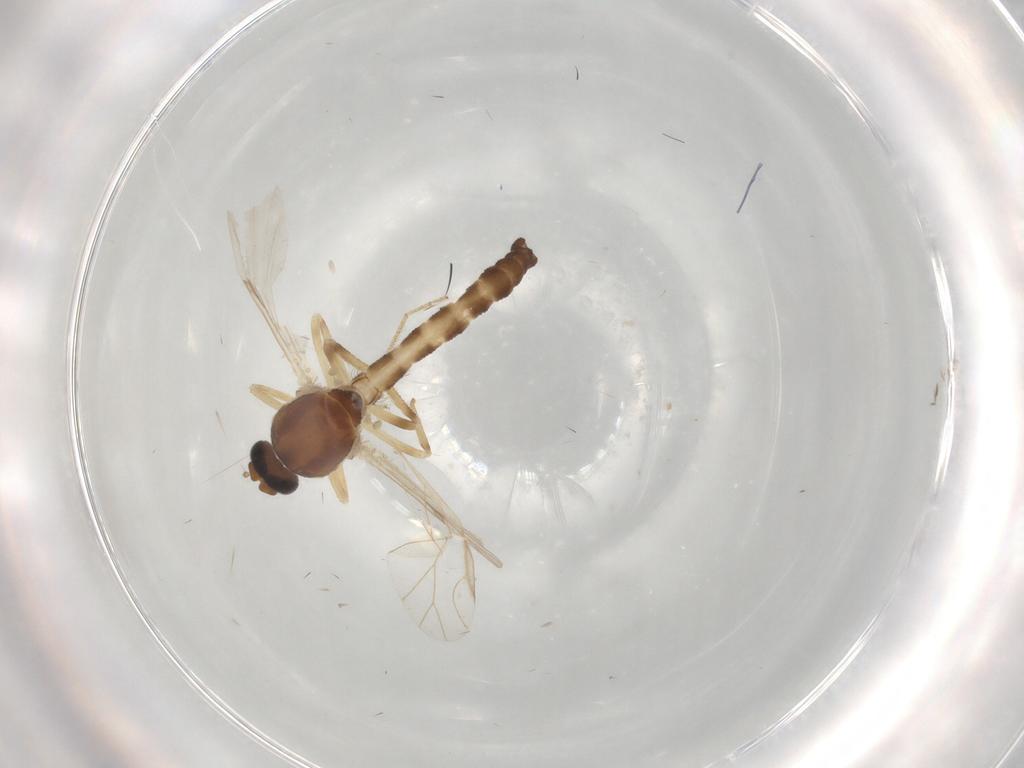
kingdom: Animalia
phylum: Arthropoda
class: Insecta
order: Diptera
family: Ceratopogonidae
